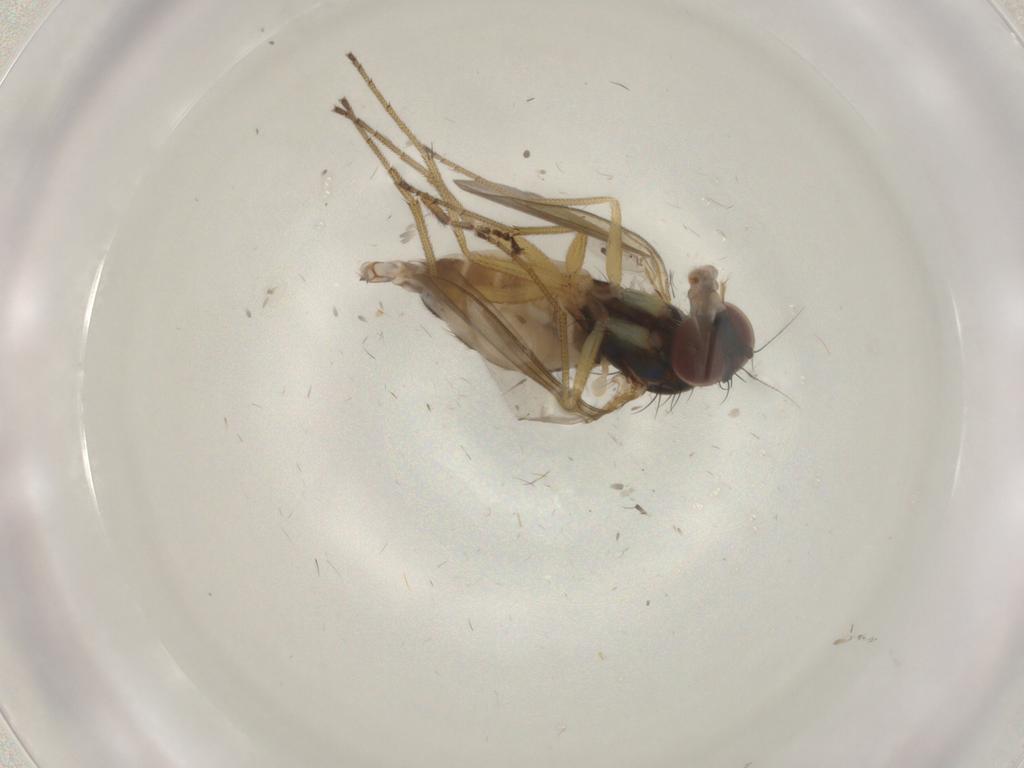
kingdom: Animalia
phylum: Arthropoda
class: Insecta
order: Diptera
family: Dolichopodidae
